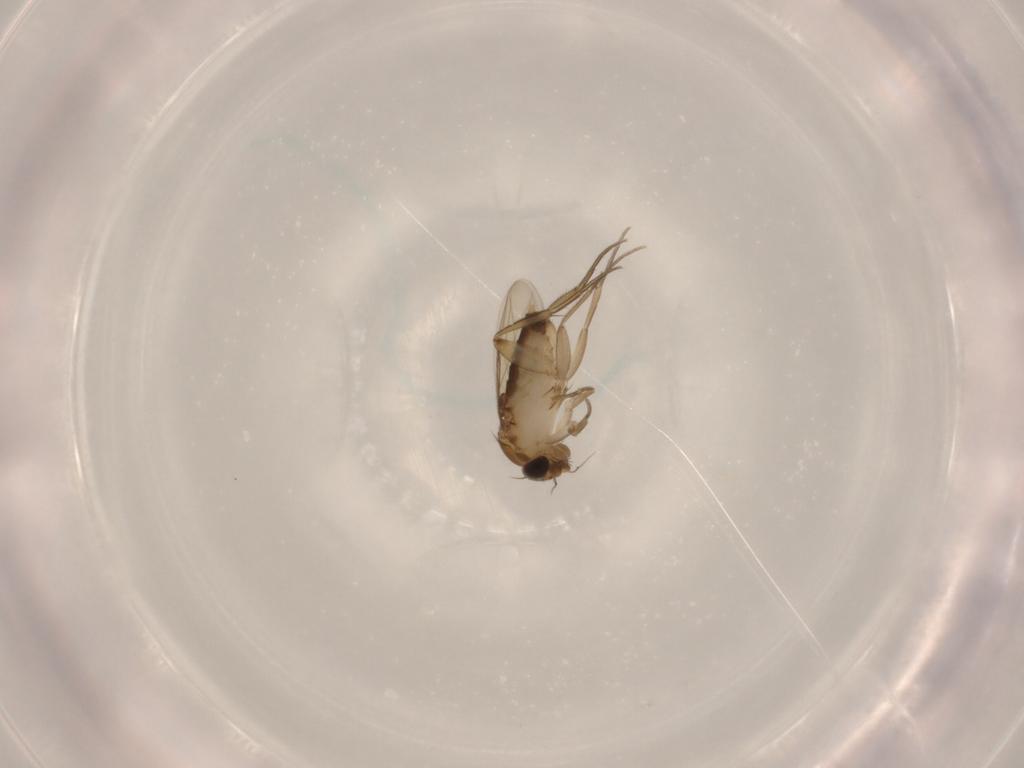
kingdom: Animalia
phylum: Arthropoda
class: Insecta
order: Diptera
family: Phoridae
